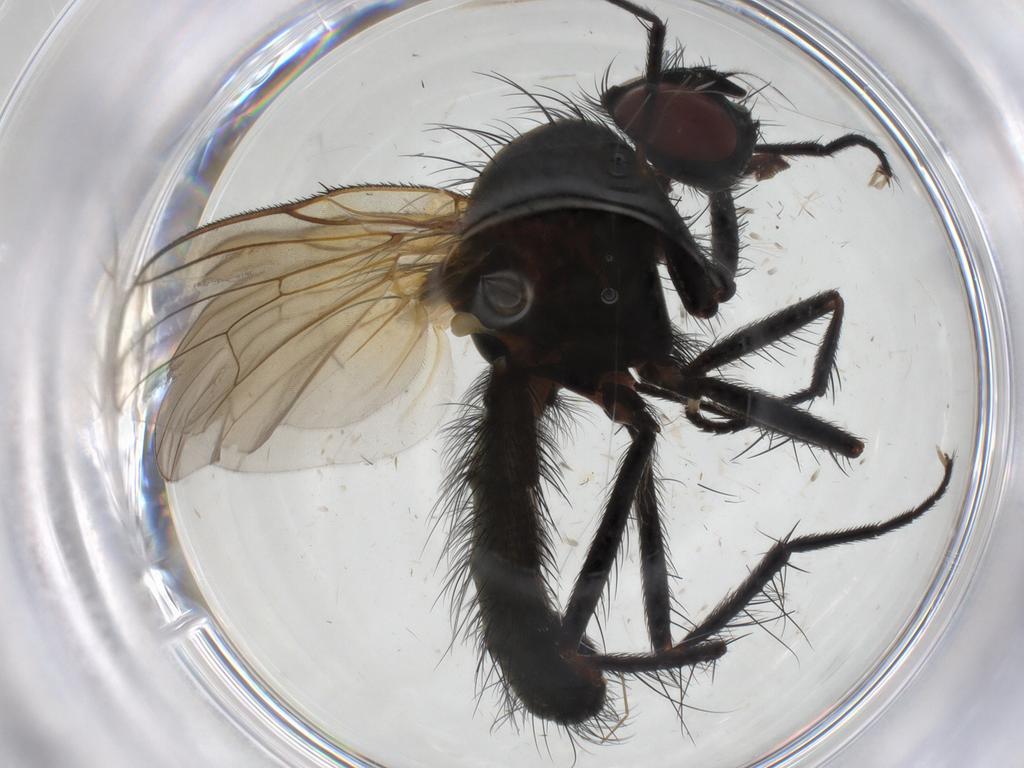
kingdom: Animalia
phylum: Arthropoda
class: Insecta
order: Diptera
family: Anthomyiidae
